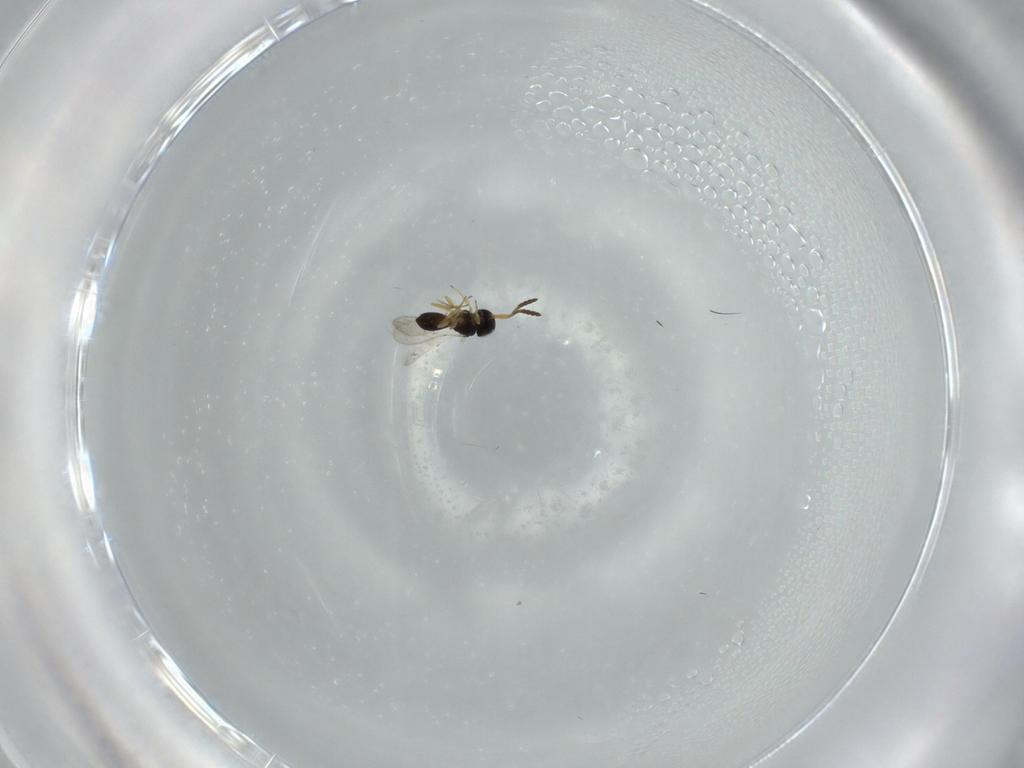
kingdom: Animalia
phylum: Arthropoda
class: Insecta
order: Hymenoptera
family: Scelionidae
